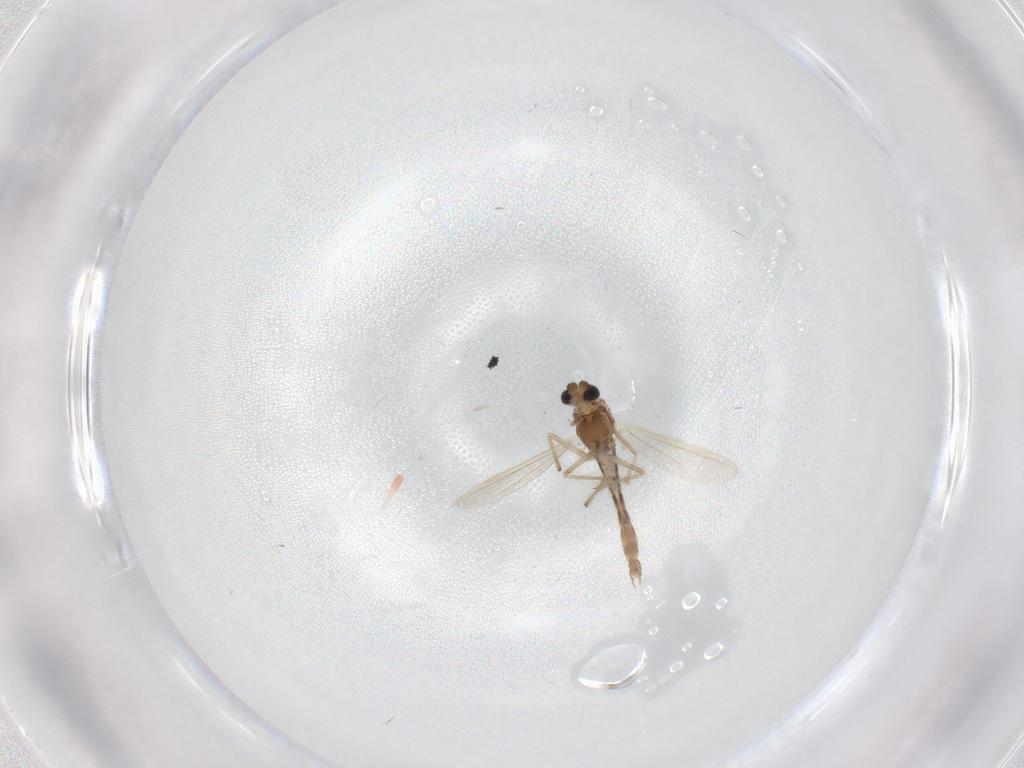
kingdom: Animalia
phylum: Arthropoda
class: Insecta
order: Diptera
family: Chironomidae
